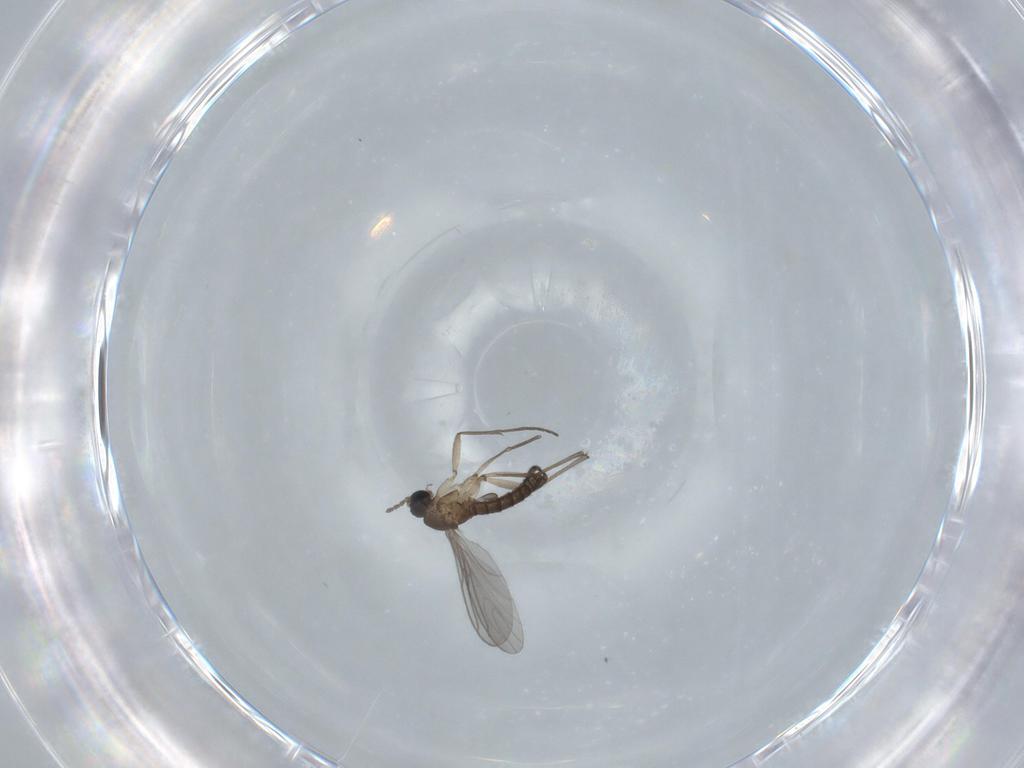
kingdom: Animalia
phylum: Arthropoda
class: Insecta
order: Diptera
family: Sciaridae
